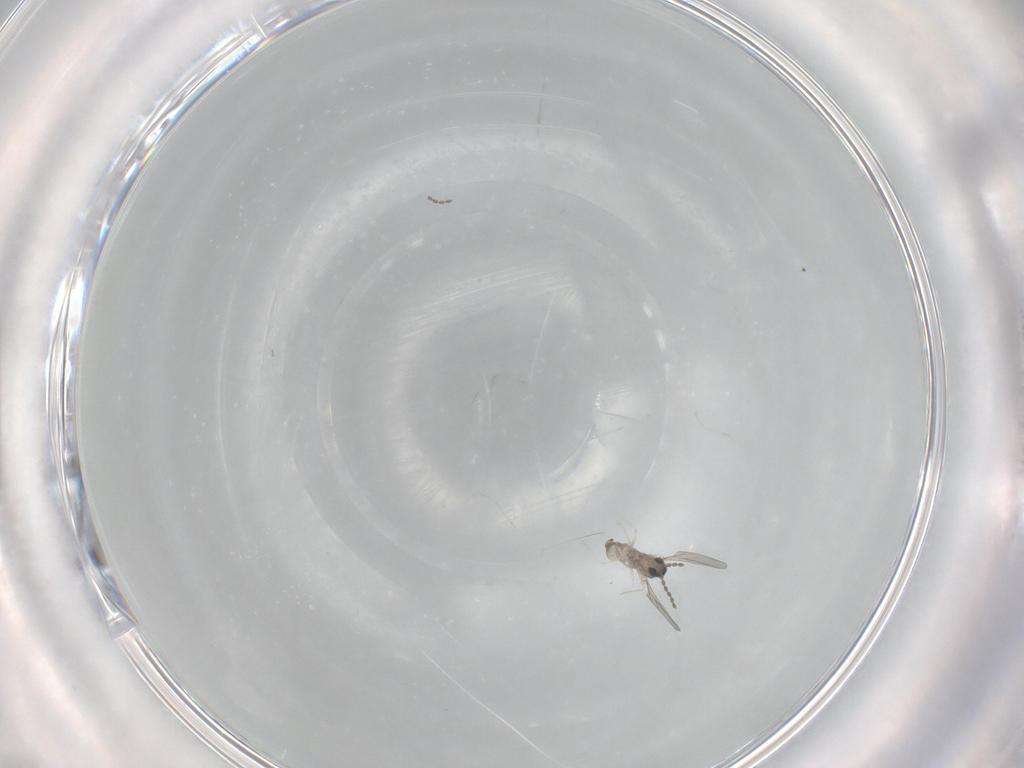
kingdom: Animalia
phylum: Arthropoda
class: Insecta
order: Diptera
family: Cecidomyiidae
